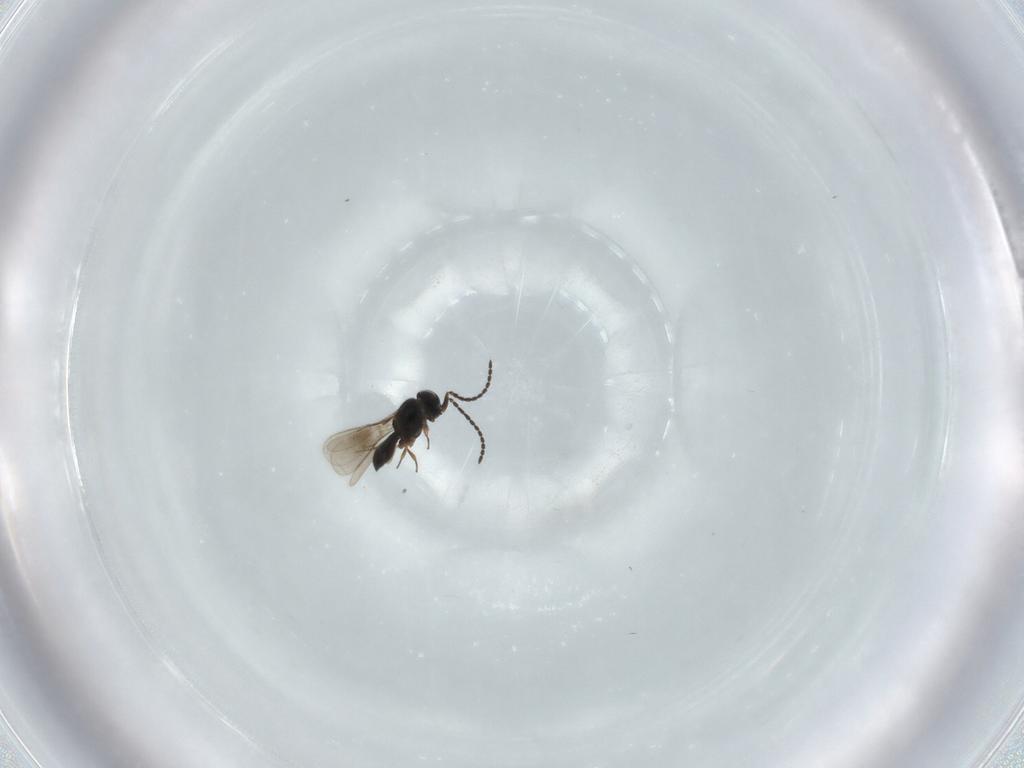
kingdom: Animalia
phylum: Arthropoda
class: Insecta
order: Hymenoptera
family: Scelionidae
